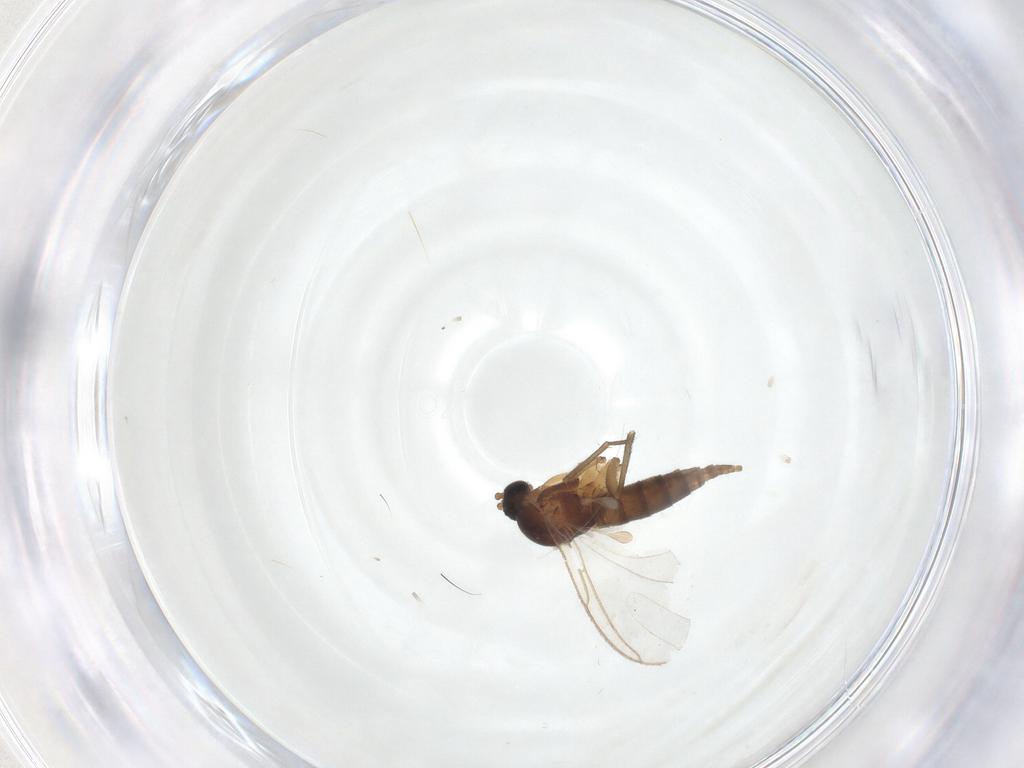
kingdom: Animalia
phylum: Arthropoda
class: Insecta
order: Diptera
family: Sciaridae
